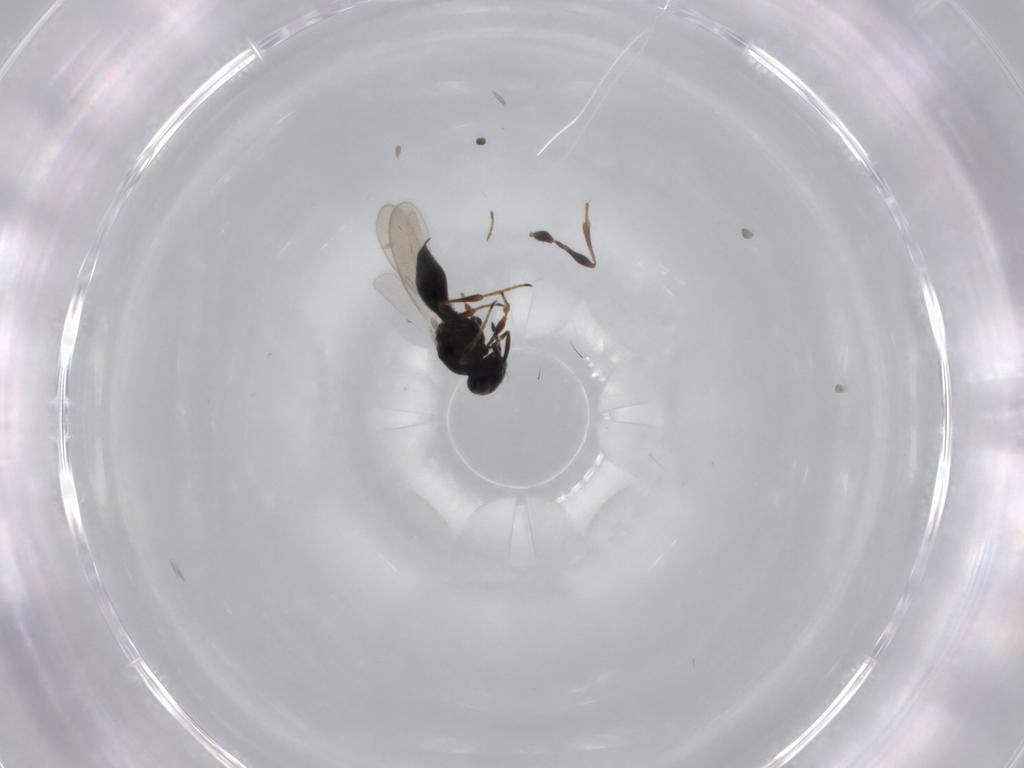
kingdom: Animalia
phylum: Arthropoda
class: Insecta
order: Hymenoptera
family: Platygastridae
